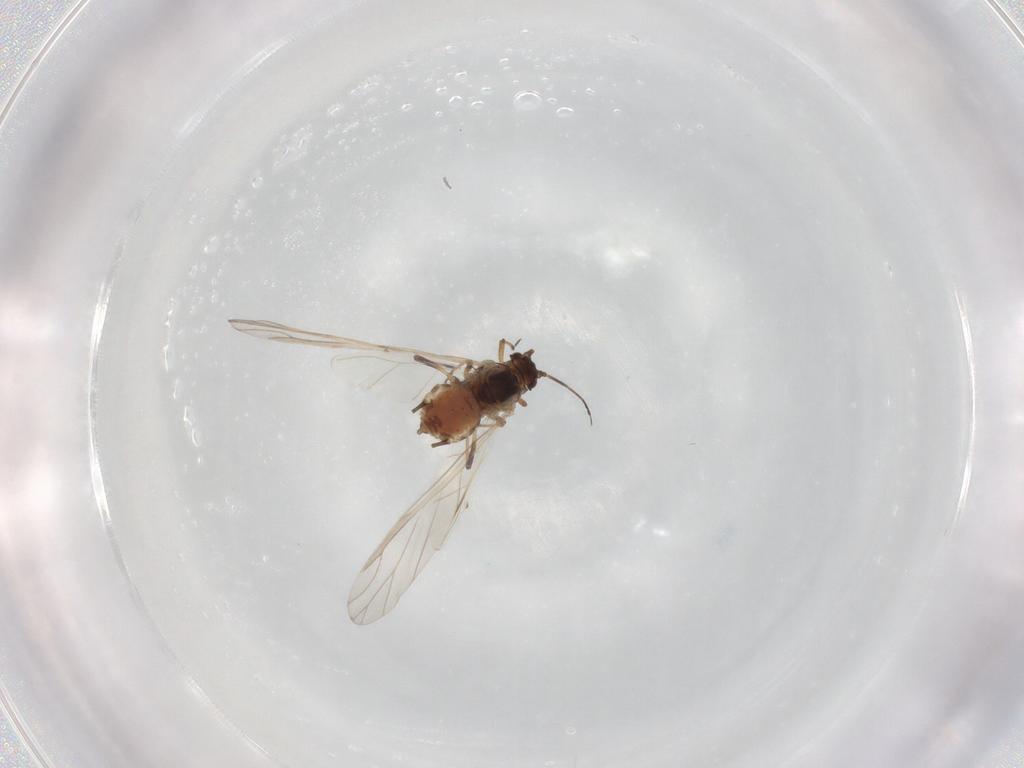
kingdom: Animalia
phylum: Arthropoda
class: Insecta
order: Hemiptera
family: Aphididae
